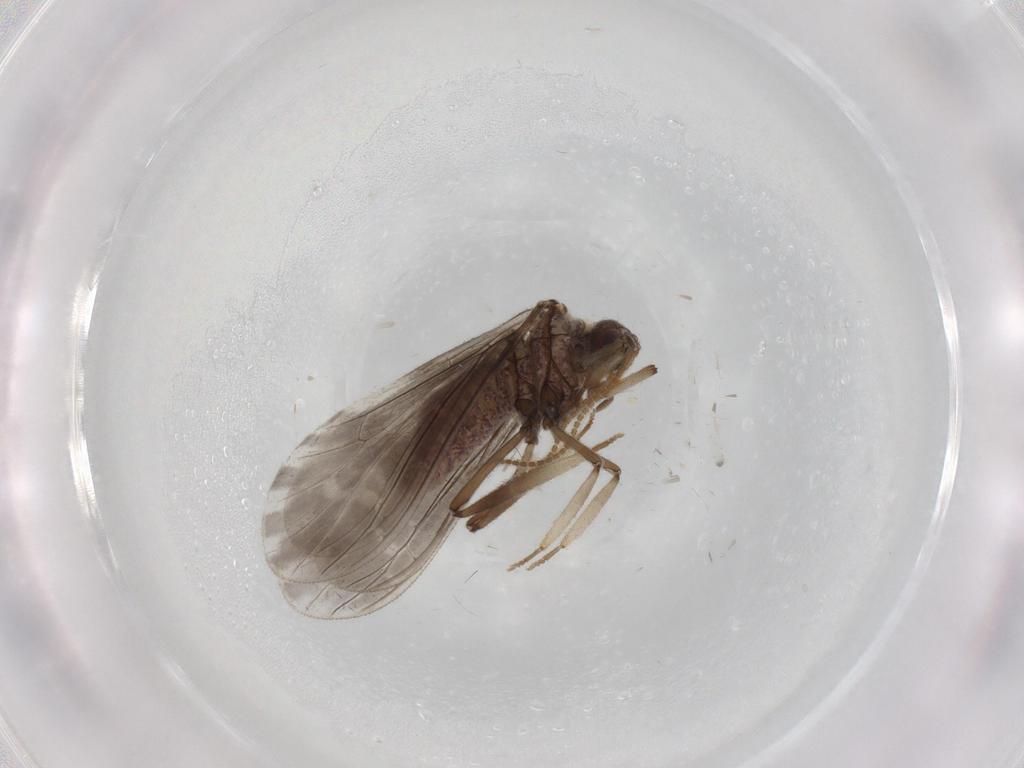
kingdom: Animalia
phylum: Arthropoda
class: Insecta
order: Neuroptera
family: Coniopterygidae
